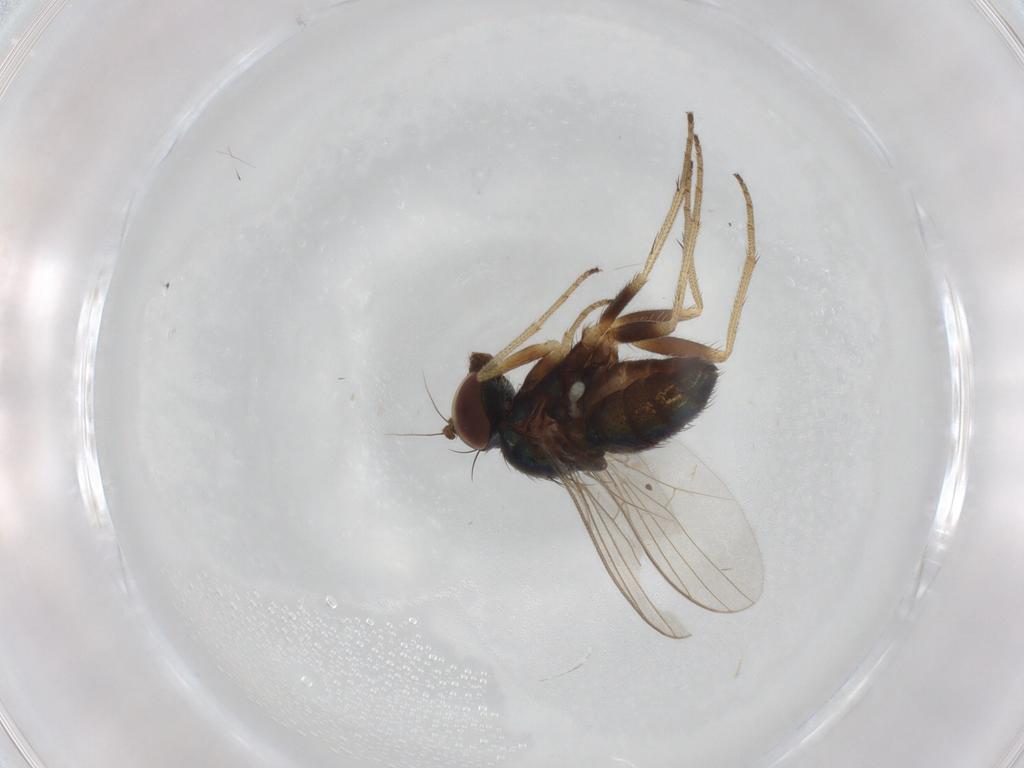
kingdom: Animalia
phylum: Arthropoda
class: Insecta
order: Diptera
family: Dolichopodidae
